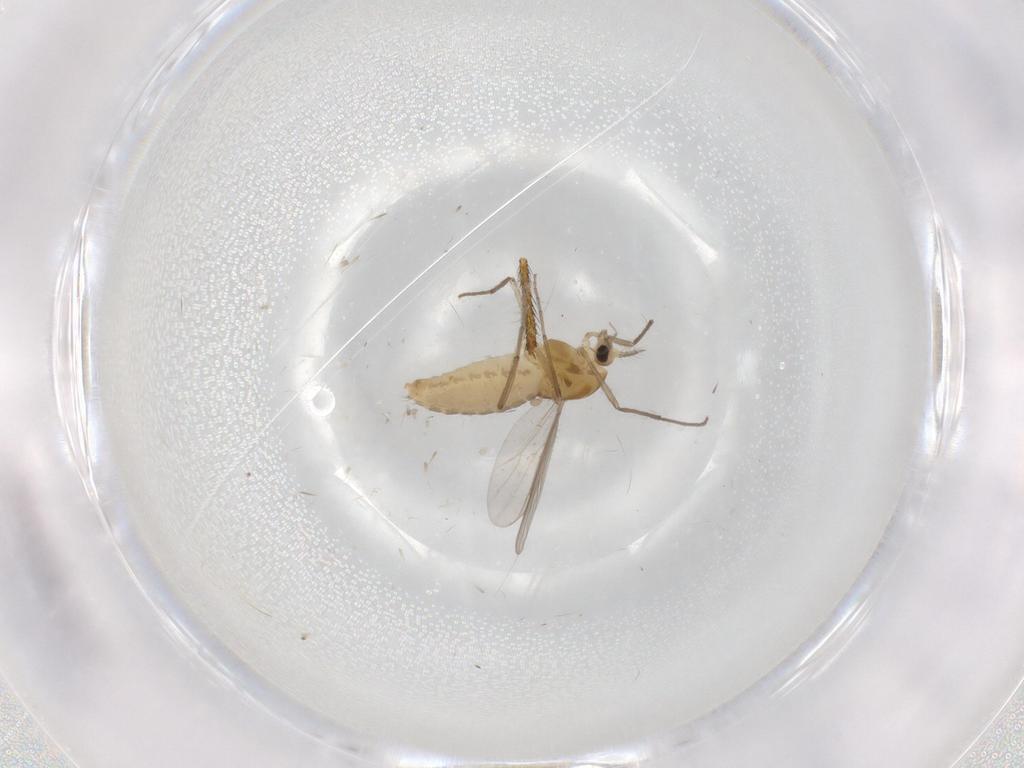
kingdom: Animalia
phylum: Arthropoda
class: Insecta
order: Diptera
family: Chironomidae
